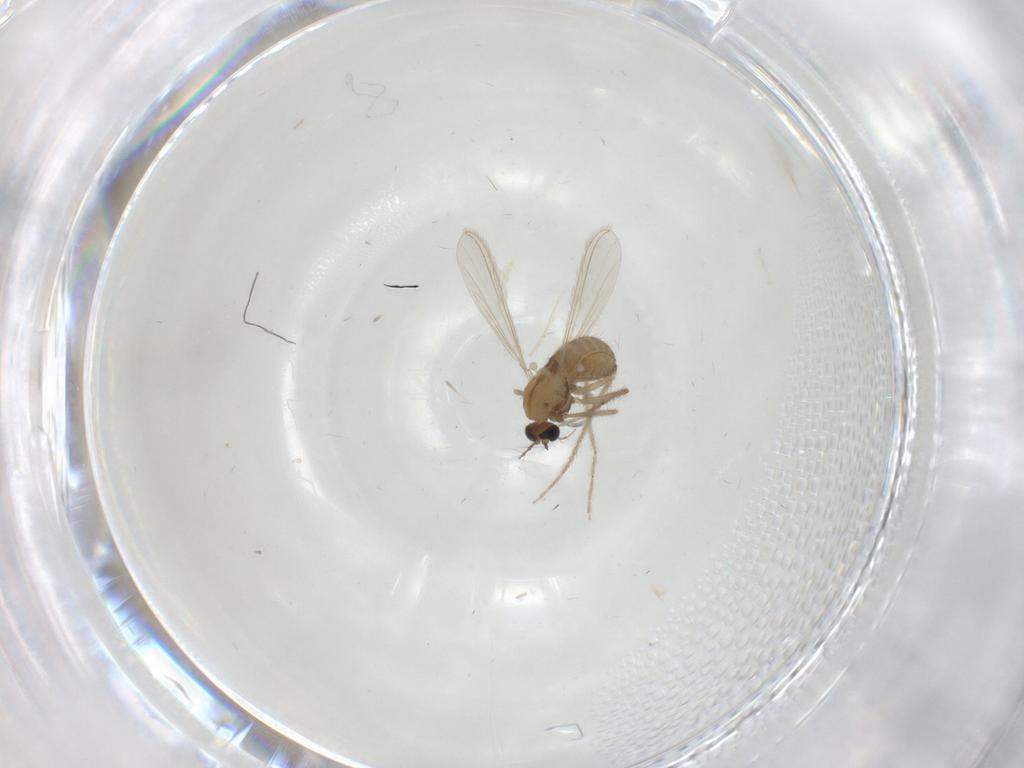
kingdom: Animalia
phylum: Arthropoda
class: Insecta
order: Diptera
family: Chironomidae
